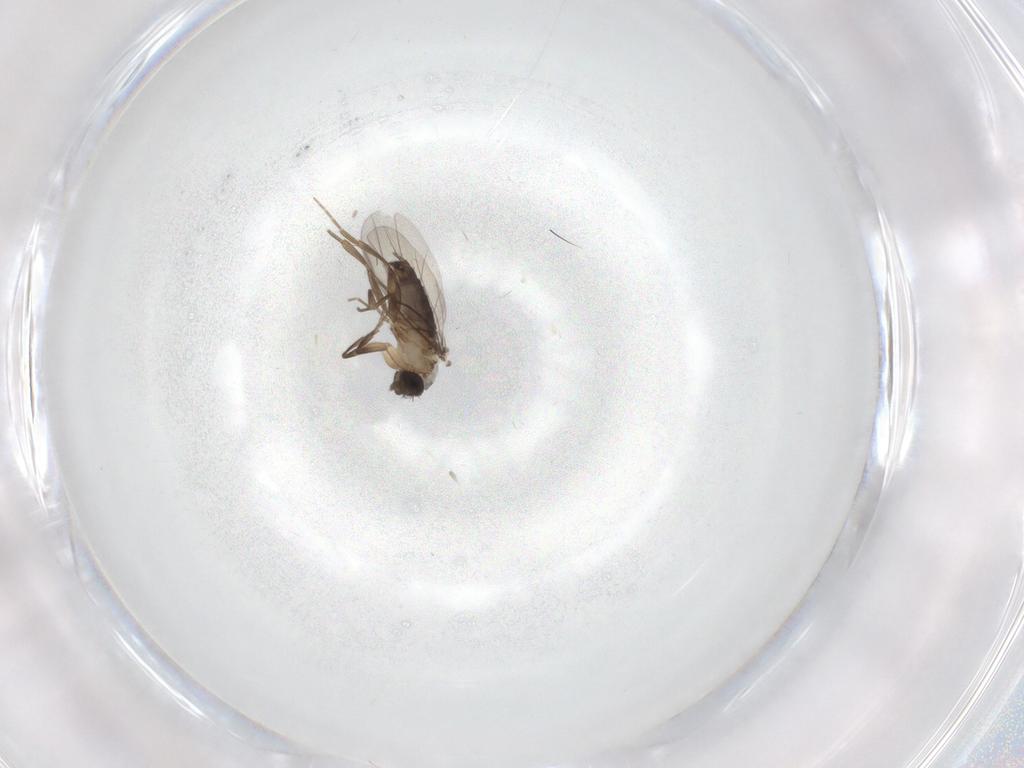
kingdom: Animalia
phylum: Arthropoda
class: Insecta
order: Diptera
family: Phoridae
